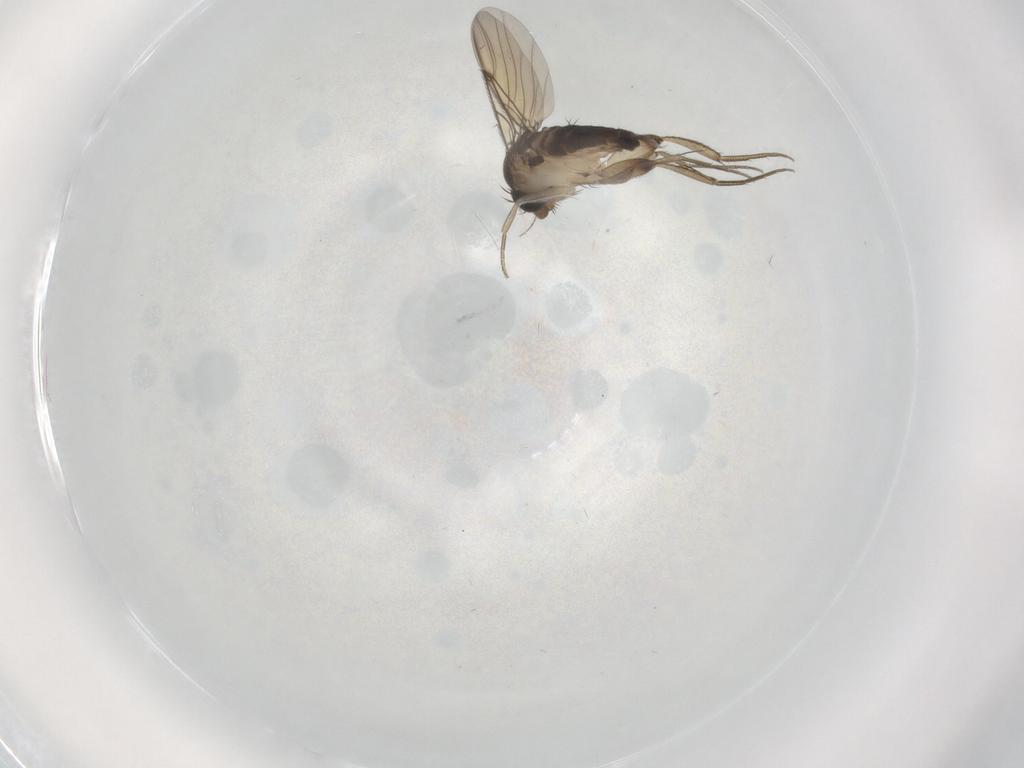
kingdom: Animalia
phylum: Arthropoda
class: Insecta
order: Diptera
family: Phoridae
